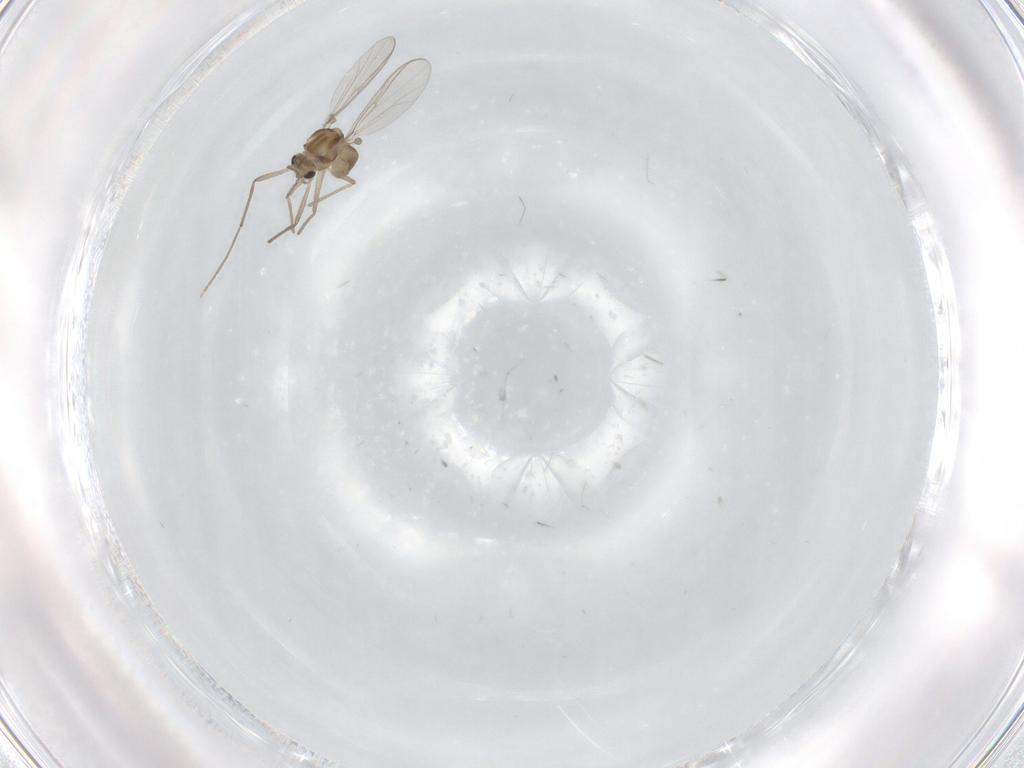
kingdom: Animalia
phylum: Arthropoda
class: Insecta
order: Diptera
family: Chironomidae
